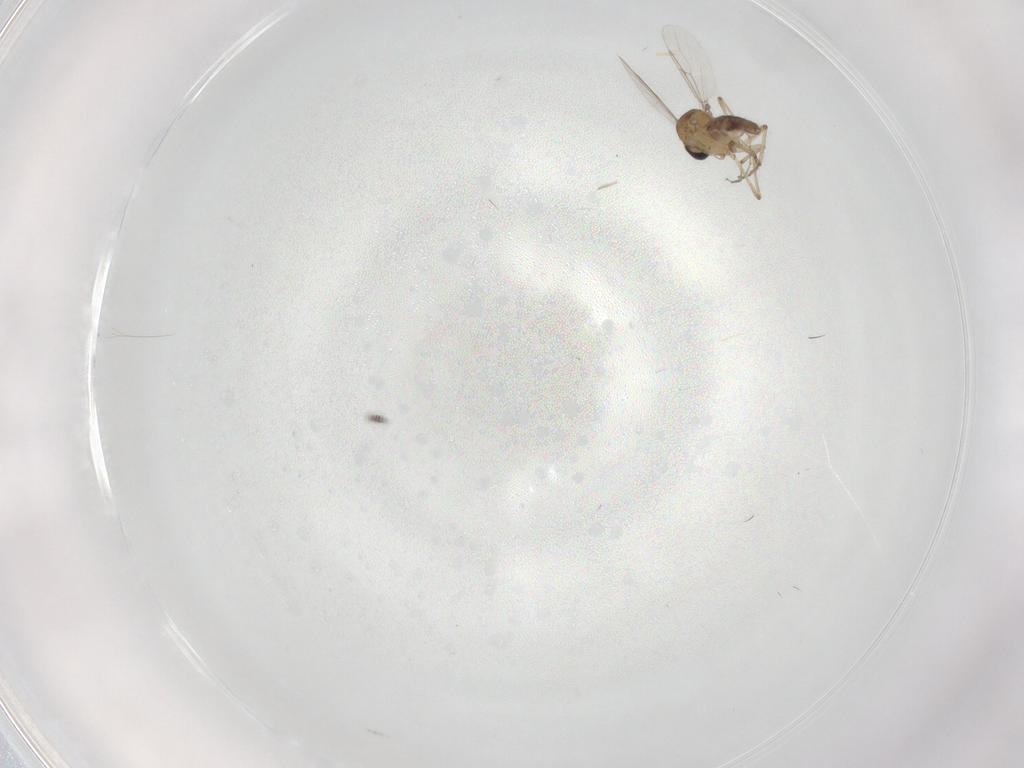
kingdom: Animalia
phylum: Arthropoda
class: Insecta
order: Diptera
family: Ceratopogonidae
